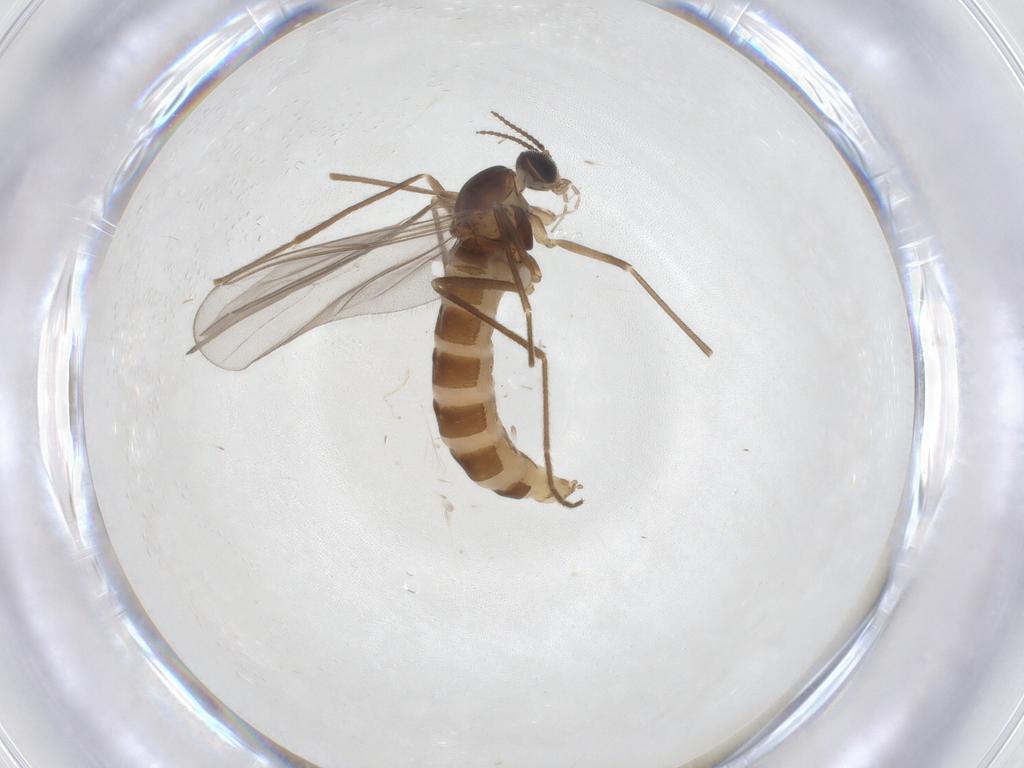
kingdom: Animalia
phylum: Arthropoda
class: Insecta
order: Diptera
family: Cecidomyiidae
